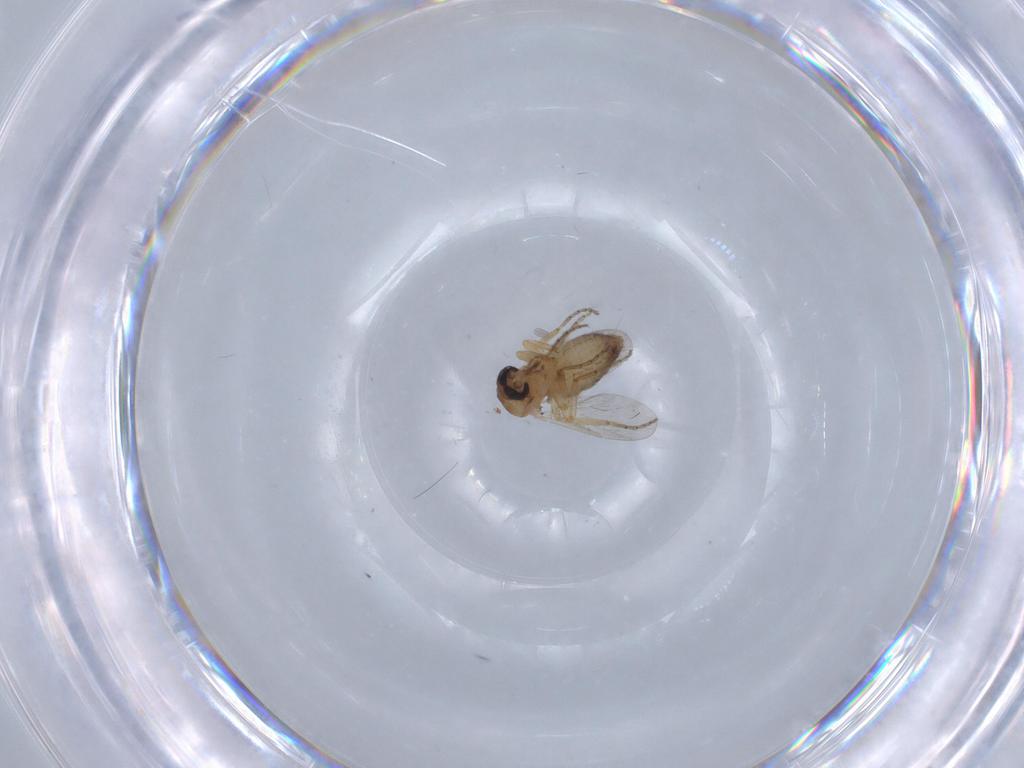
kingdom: Animalia
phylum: Arthropoda
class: Insecta
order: Diptera
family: Ceratopogonidae
